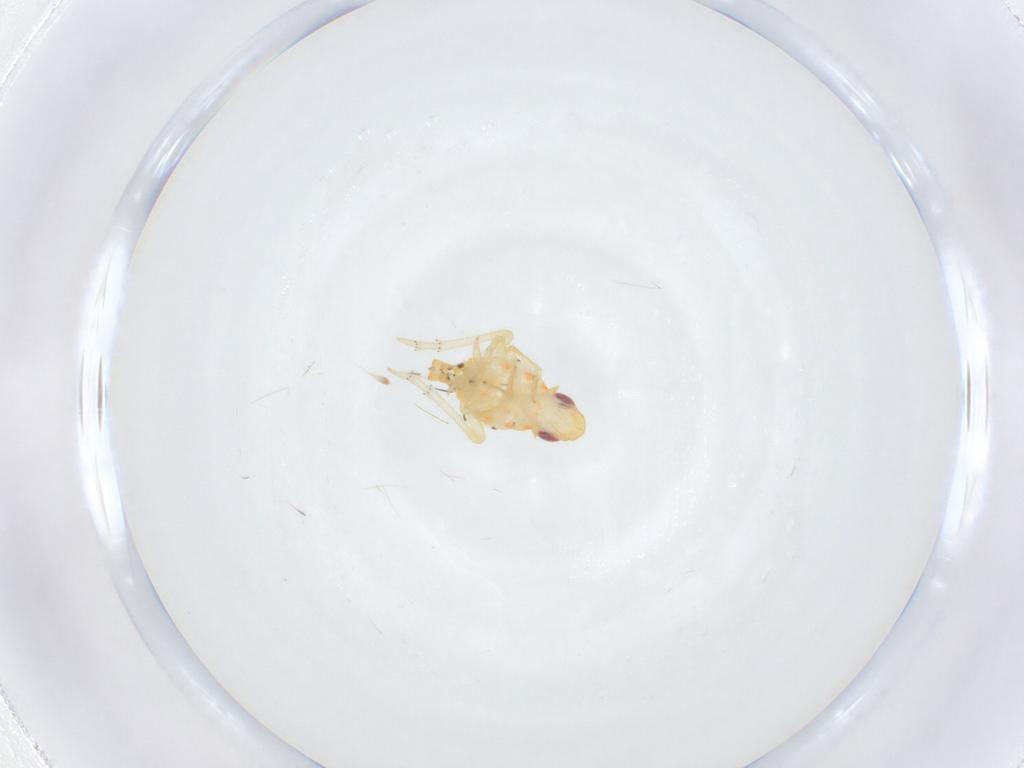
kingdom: Animalia
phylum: Arthropoda
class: Insecta
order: Hemiptera
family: Tropiduchidae
